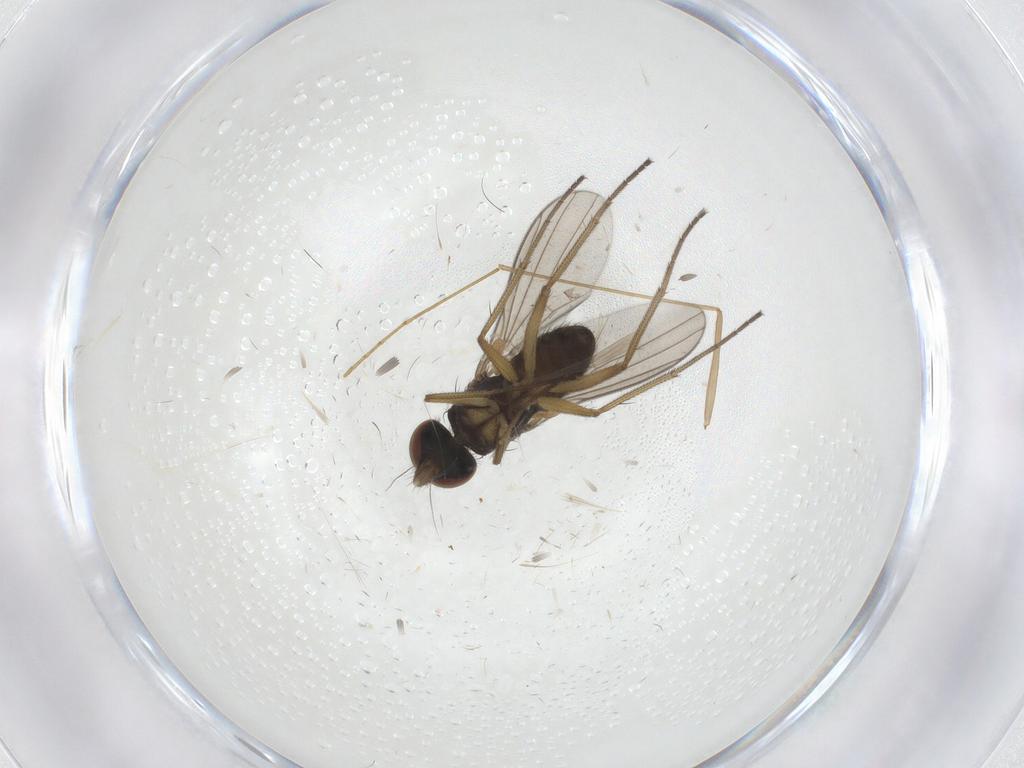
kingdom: Animalia
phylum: Arthropoda
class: Insecta
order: Diptera
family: Dolichopodidae
